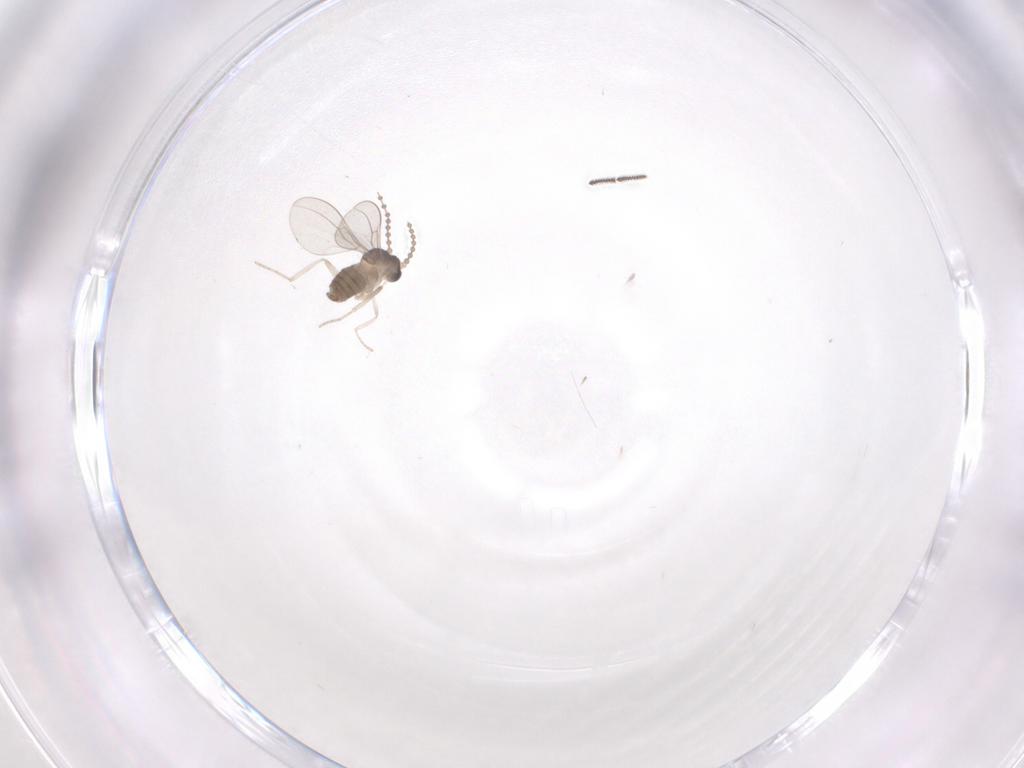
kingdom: Animalia
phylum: Arthropoda
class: Insecta
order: Diptera
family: Cecidomyiidae
